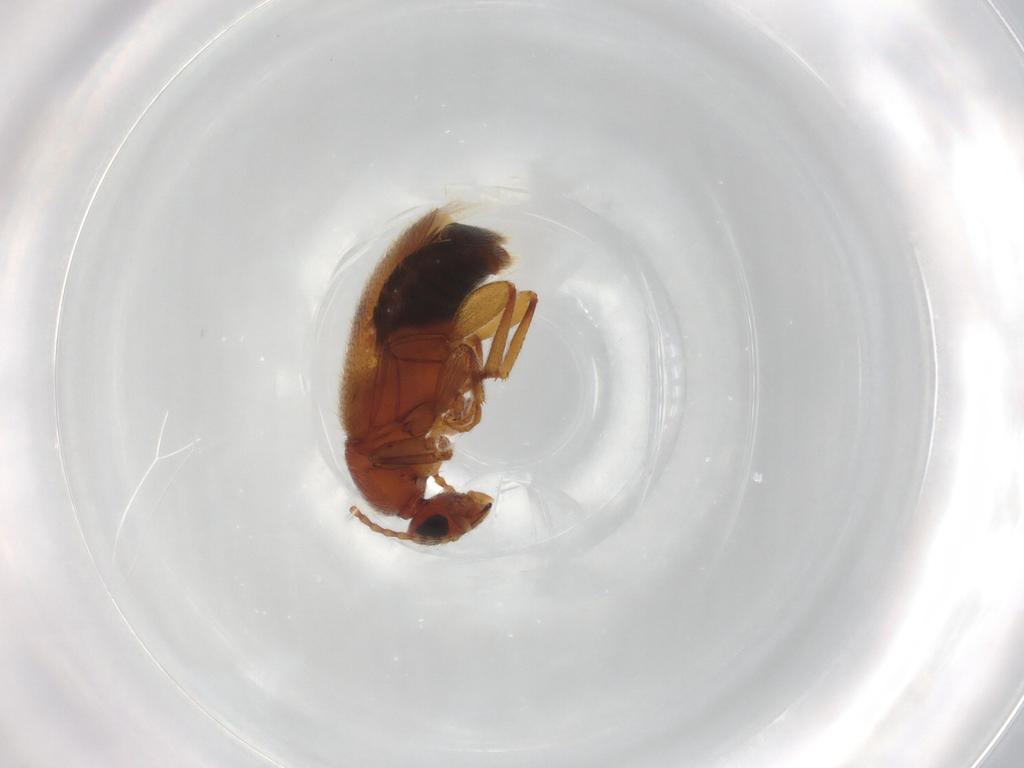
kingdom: Animalia
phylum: Arthropoda
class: Insecta
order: Coleoptera
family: Anthicidae
